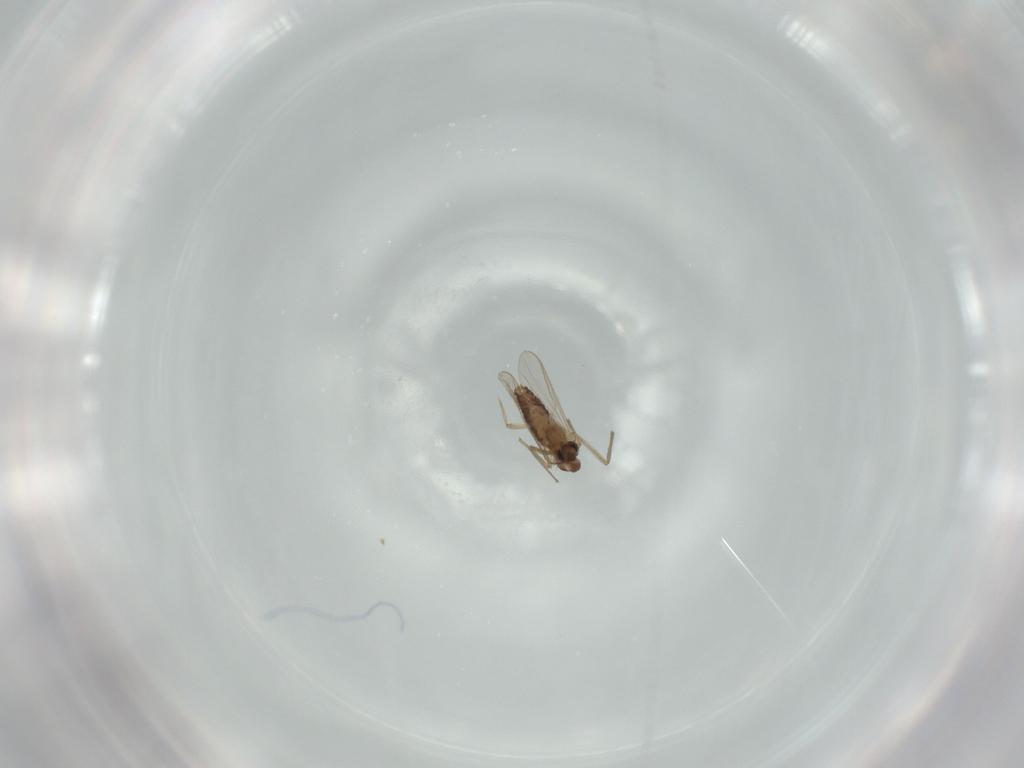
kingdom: Animalia
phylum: Arthropoda
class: Insecta
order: Diptera
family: Chironomidae
